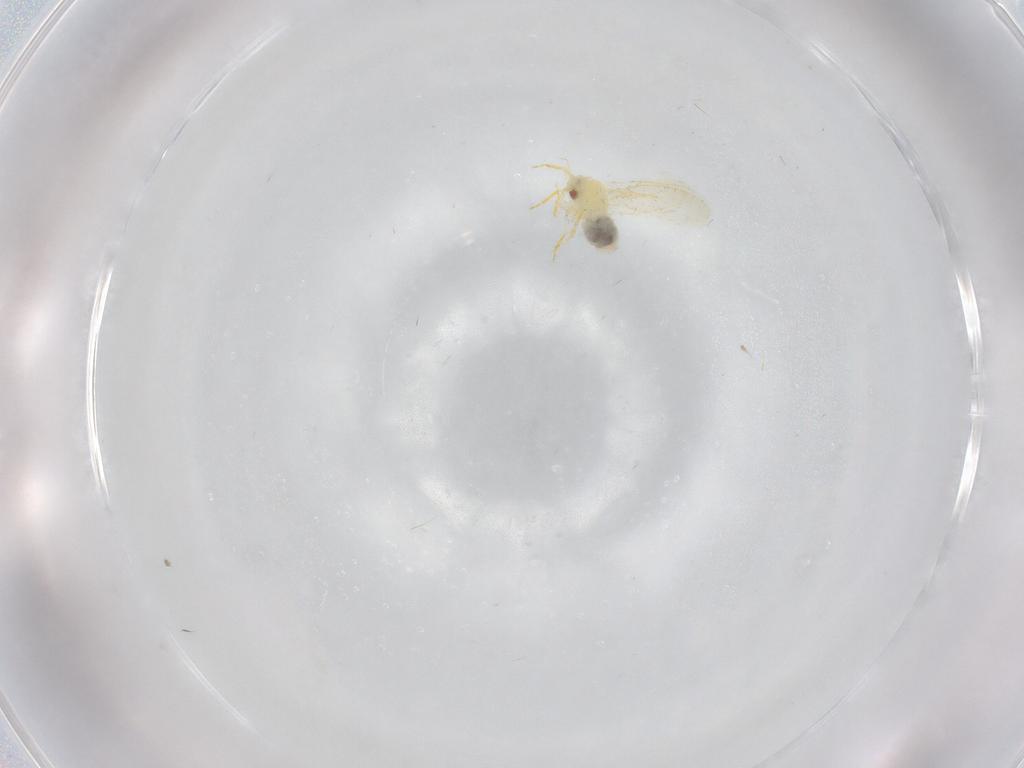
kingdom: Animalia
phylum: Arthropoda
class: Insecta
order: Hemiptera
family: Aleyrodidae
